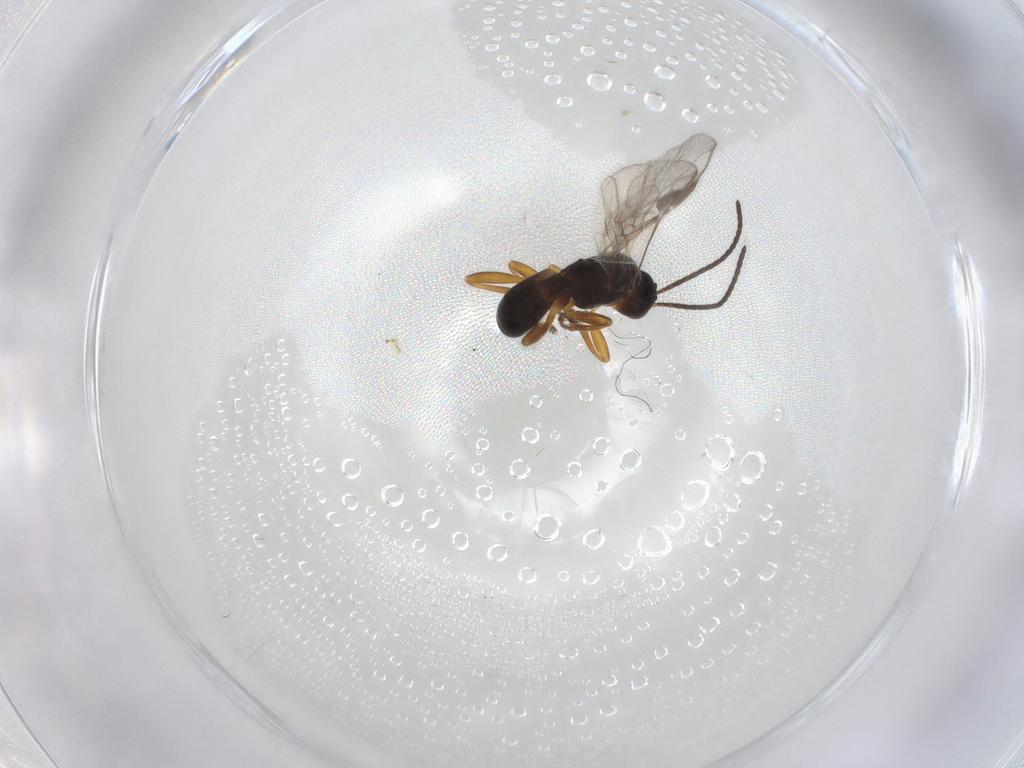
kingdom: Animalia
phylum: Arthropoda
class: Insecta
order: Hymenoptera
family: Braconidae
